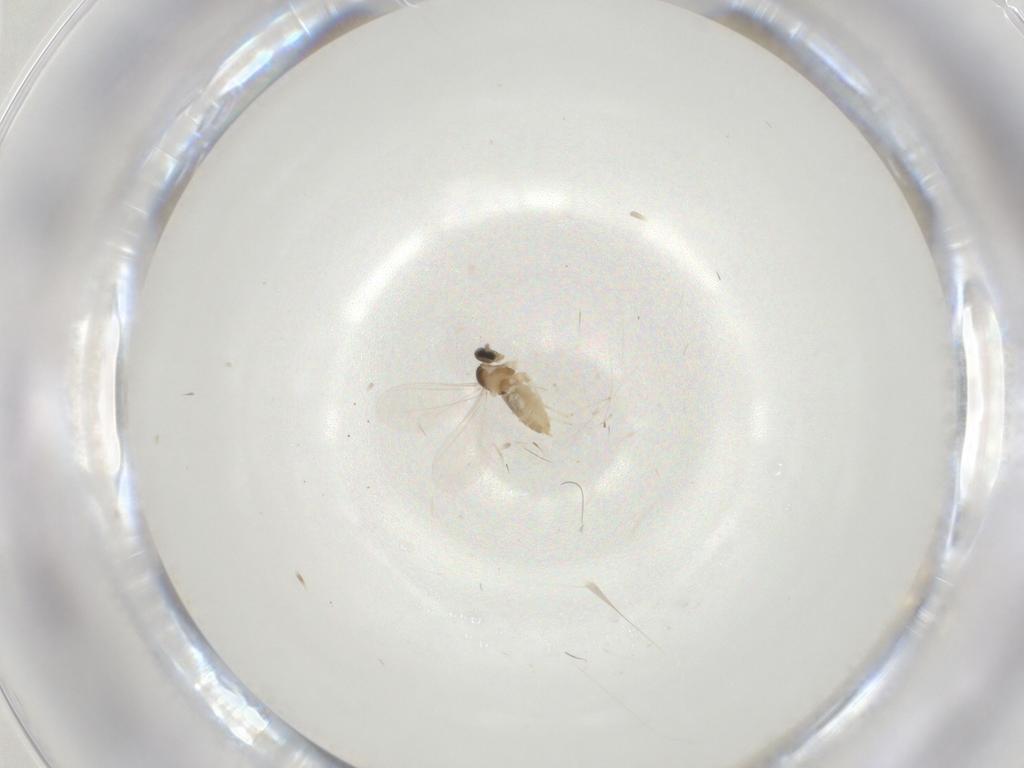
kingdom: Animalia
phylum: Arthropoda
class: Insecta
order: Diptera
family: Cecidomyiidae
